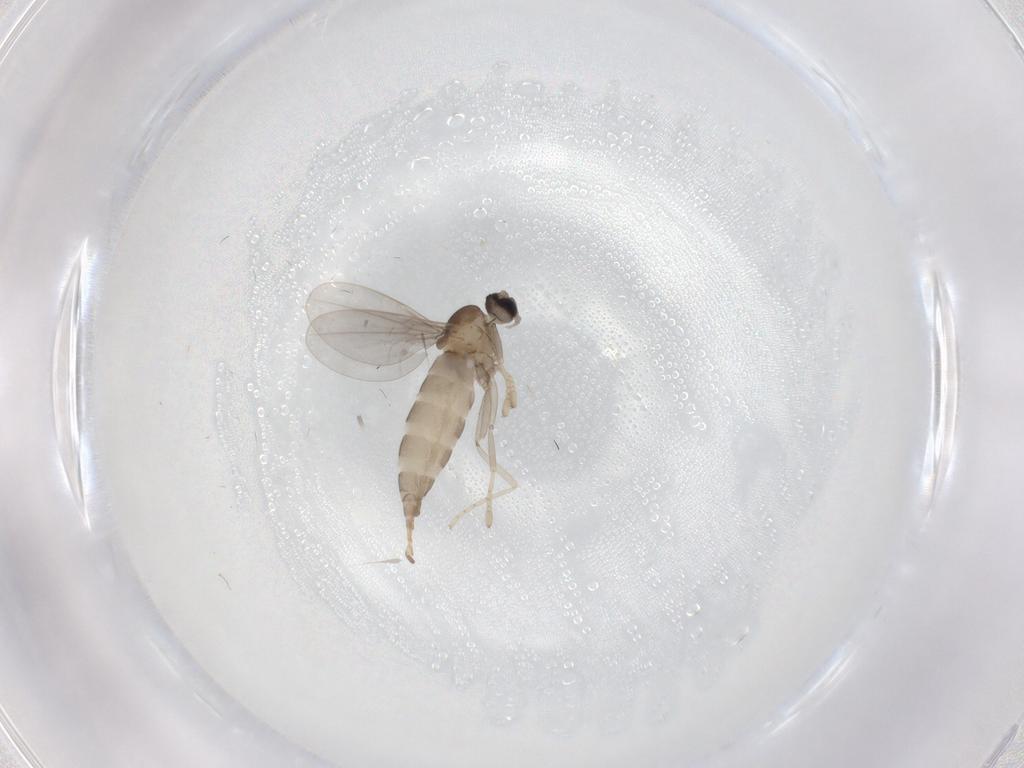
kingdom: Animalia
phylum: Arthropoda
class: Insecta
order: Diptera
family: Cecidomyiidae
